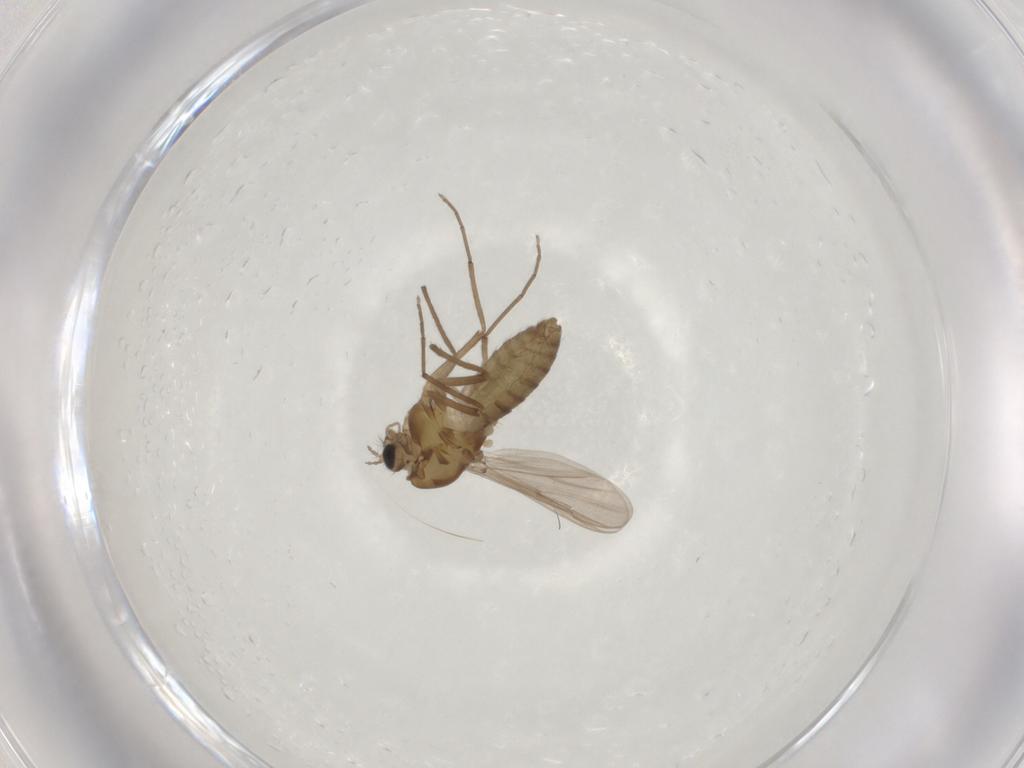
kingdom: Animalia
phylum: Arthropoda
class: Insecta
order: Diptera
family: Chironomidae
